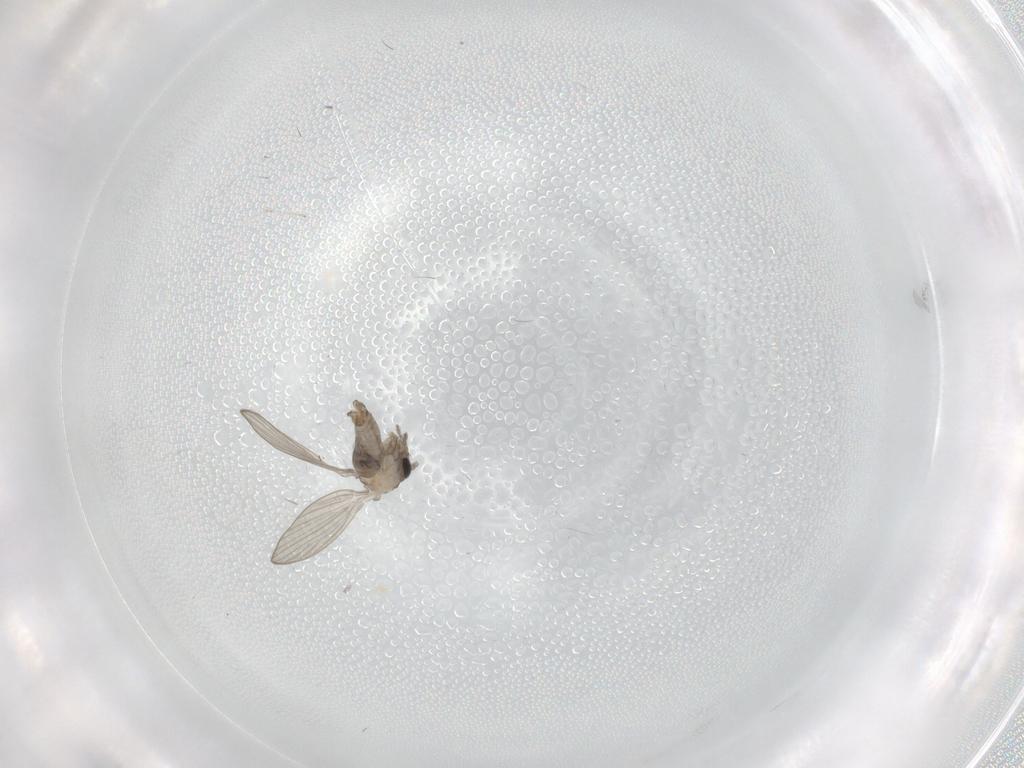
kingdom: Animalia
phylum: Arthropoda
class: Insecta
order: Diptera
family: Psychodidae
